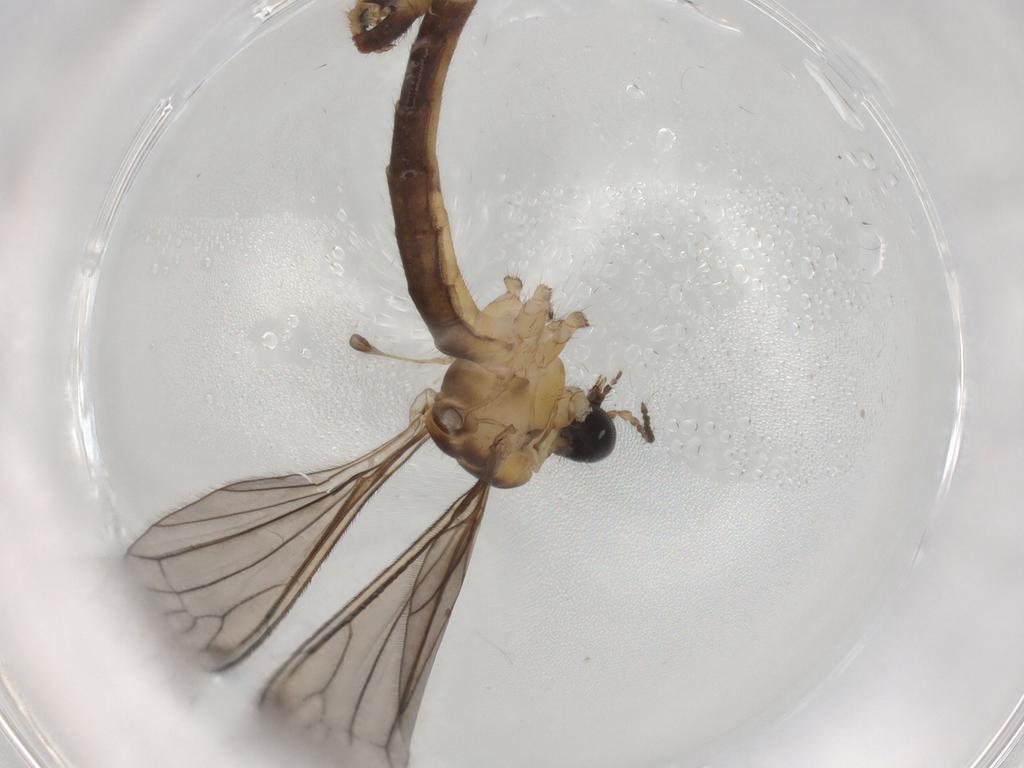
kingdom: Animalia
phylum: Arthropoda
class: Insecta
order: Diptera
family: Limoniidae
